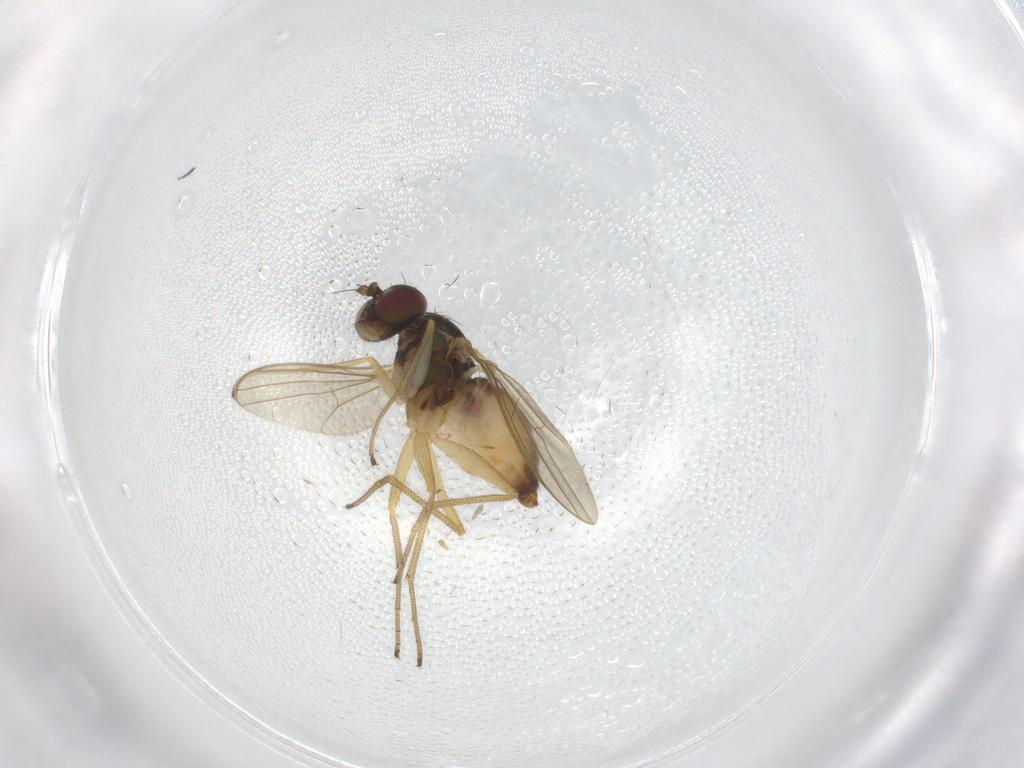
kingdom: Animalia
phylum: Arthropoda
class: Insecta
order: Diptera
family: Dolichopodidae
